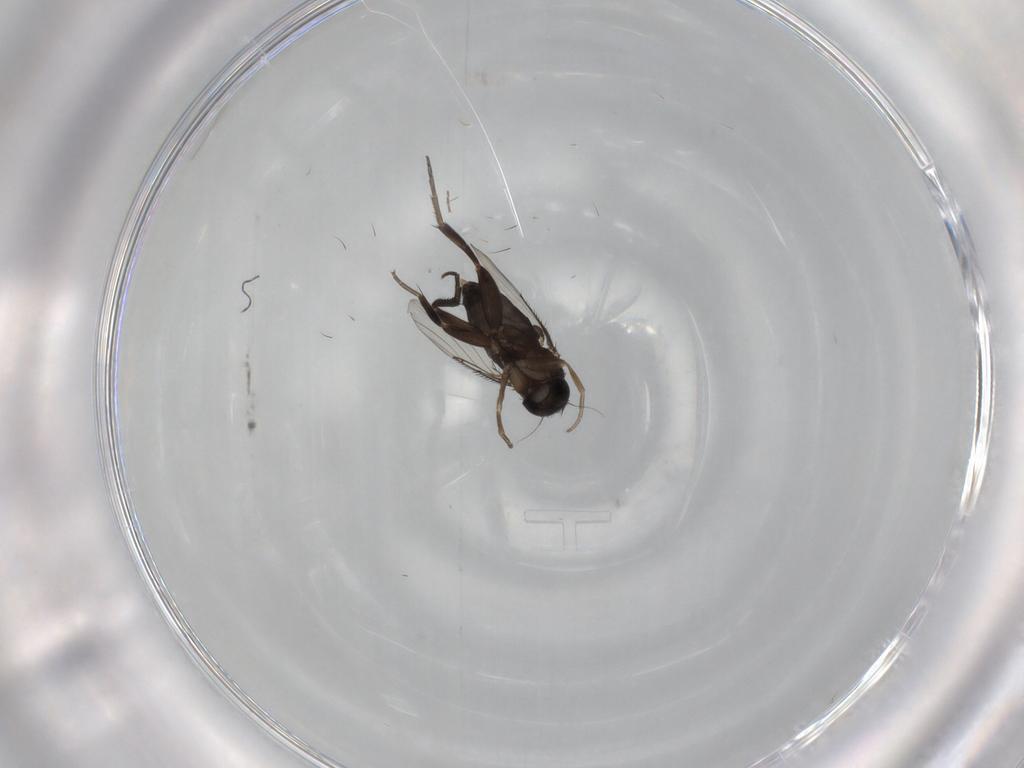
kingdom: Animalia
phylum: Arthropoda
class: Insecta
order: Diptera
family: Phoridae
